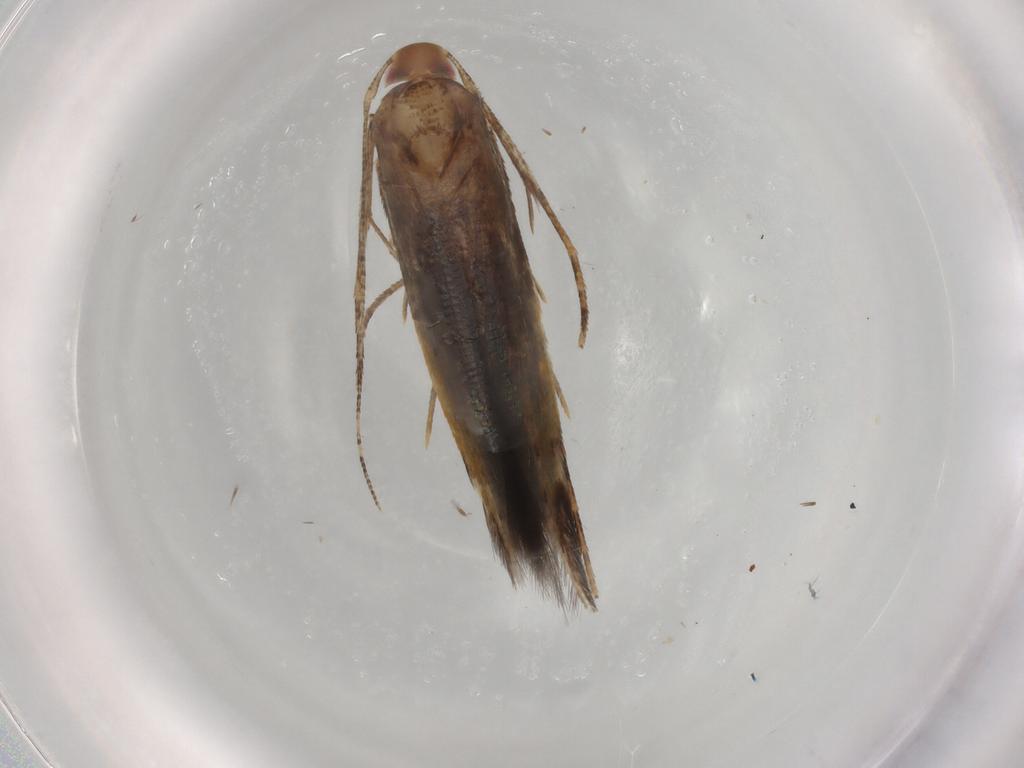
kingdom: Animalia
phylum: Arthropoda
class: Insecta
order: Lepidoptera
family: Cosmopterigidae
